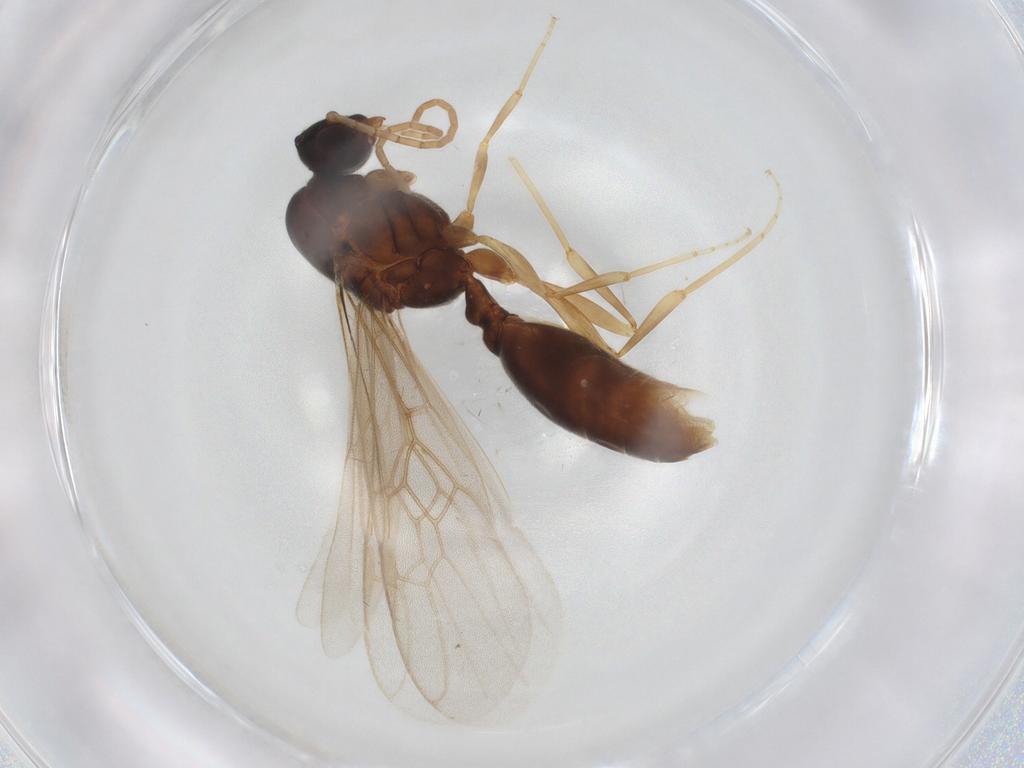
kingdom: Animalia
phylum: Arthropoda
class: Insecta
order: Hymenoptera
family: Formicidae
